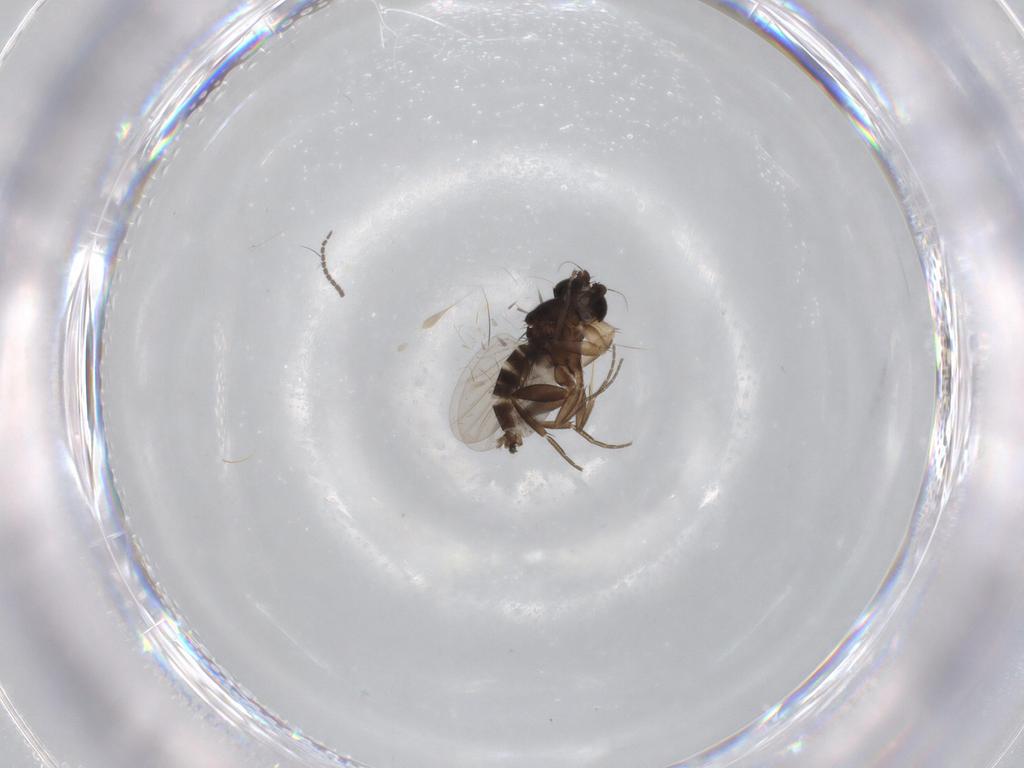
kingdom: Animalia
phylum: Arthropoda
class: Insecta
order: Diptera
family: Phoridae
